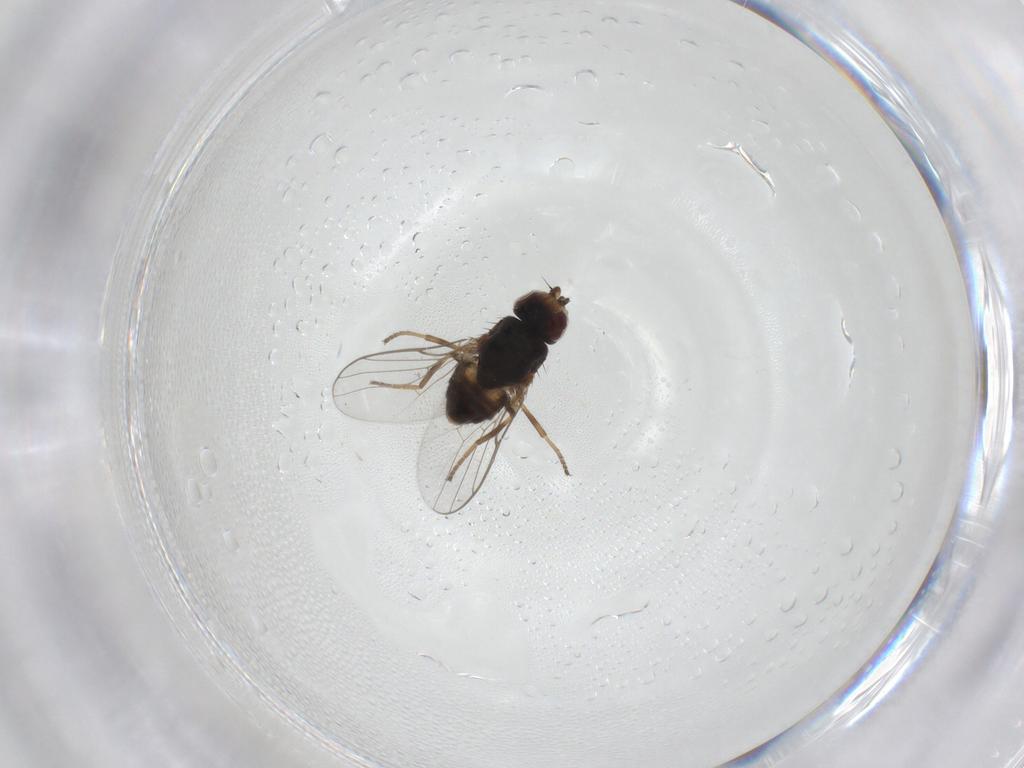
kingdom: Animalia
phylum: Arthropoda
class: Insecta
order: Diptera
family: Chloropidae
